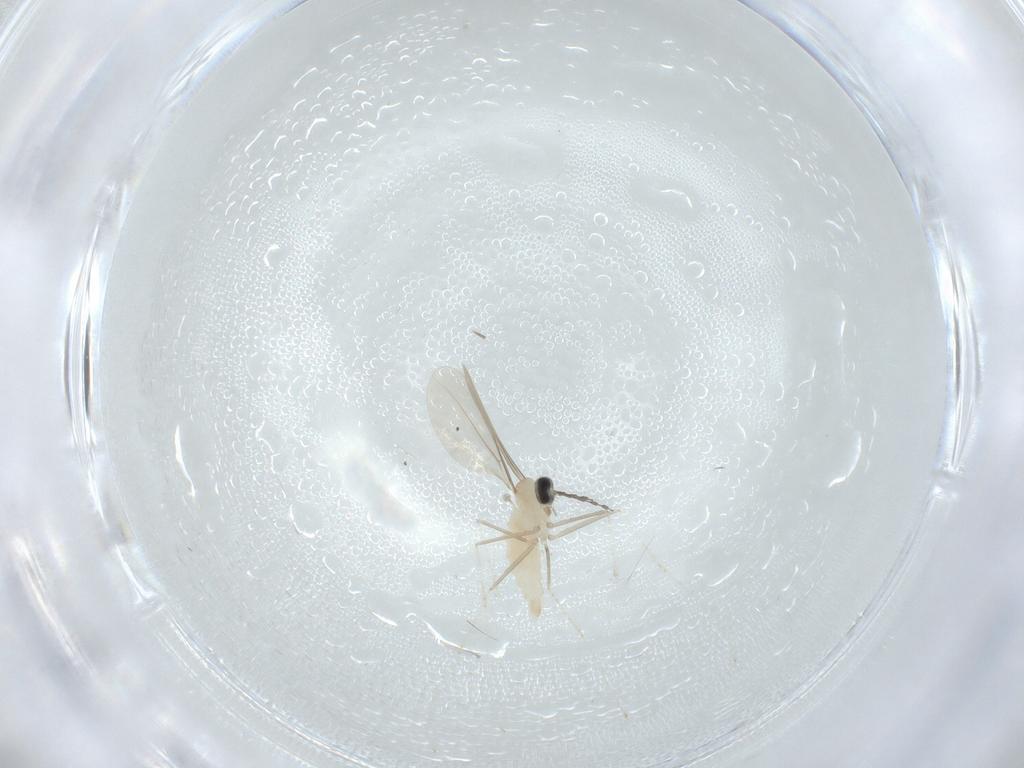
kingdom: Animalia
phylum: Arthropoda
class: Insecta
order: Diptera
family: Cecidomyiidae
